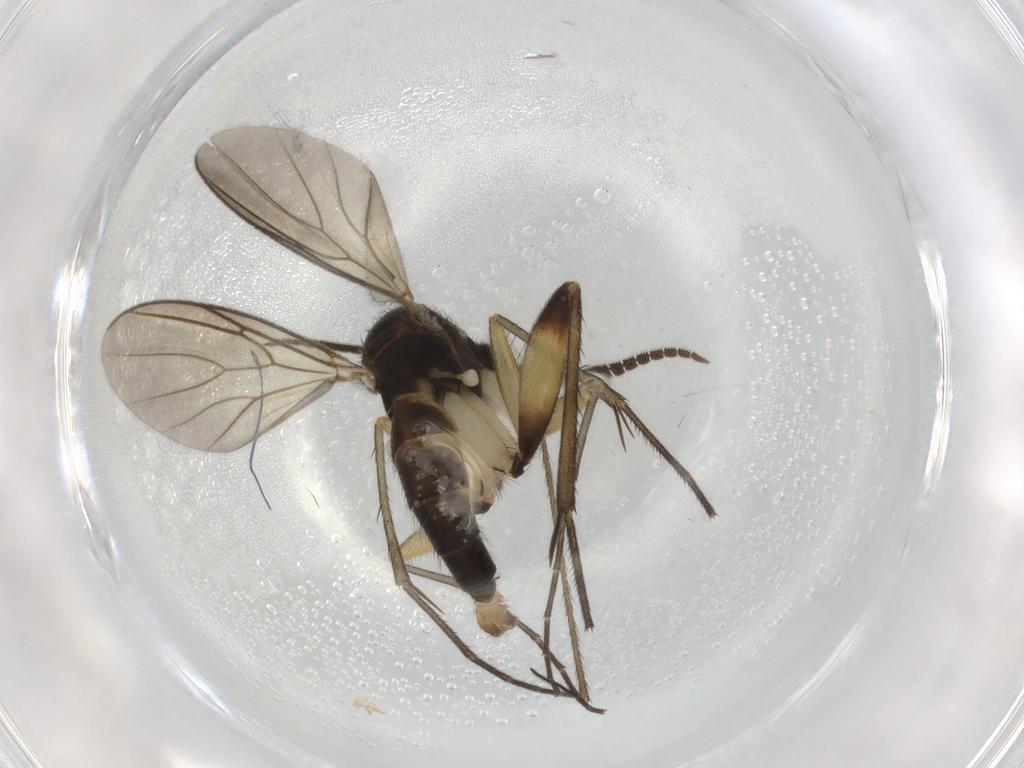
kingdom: Animalia
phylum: Arthropoda
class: Insecta
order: Diptera
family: Limoniidae
